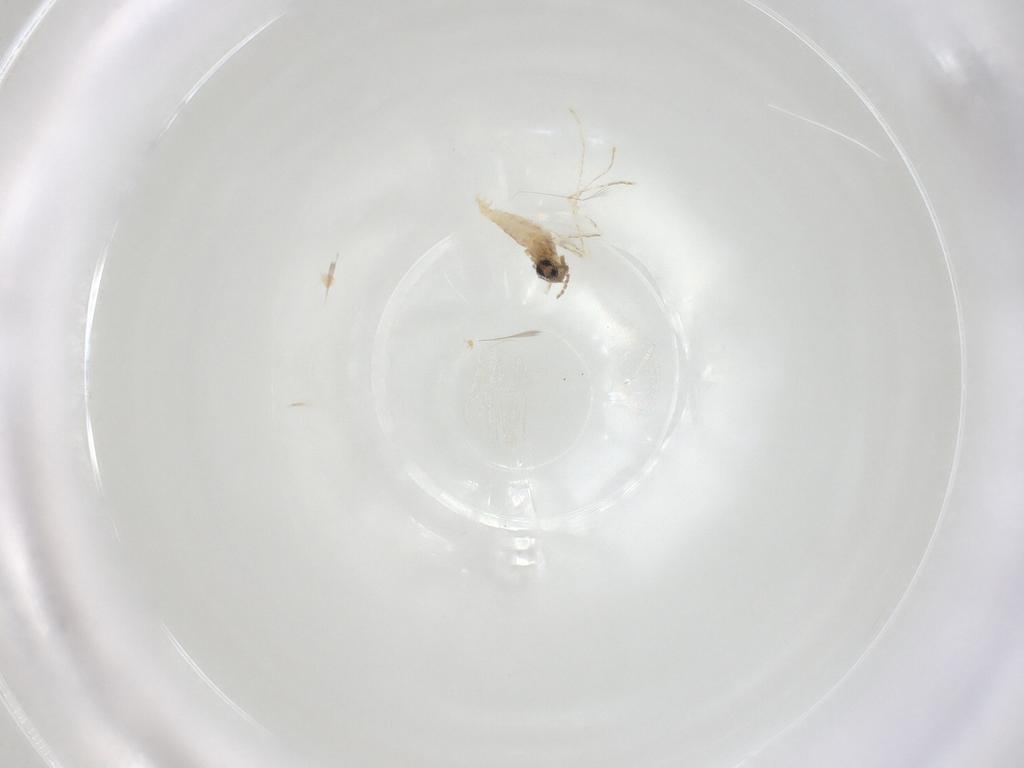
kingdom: Animalia
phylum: Arthropoda
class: Insecta
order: Diptera
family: Cecidomyiidae
